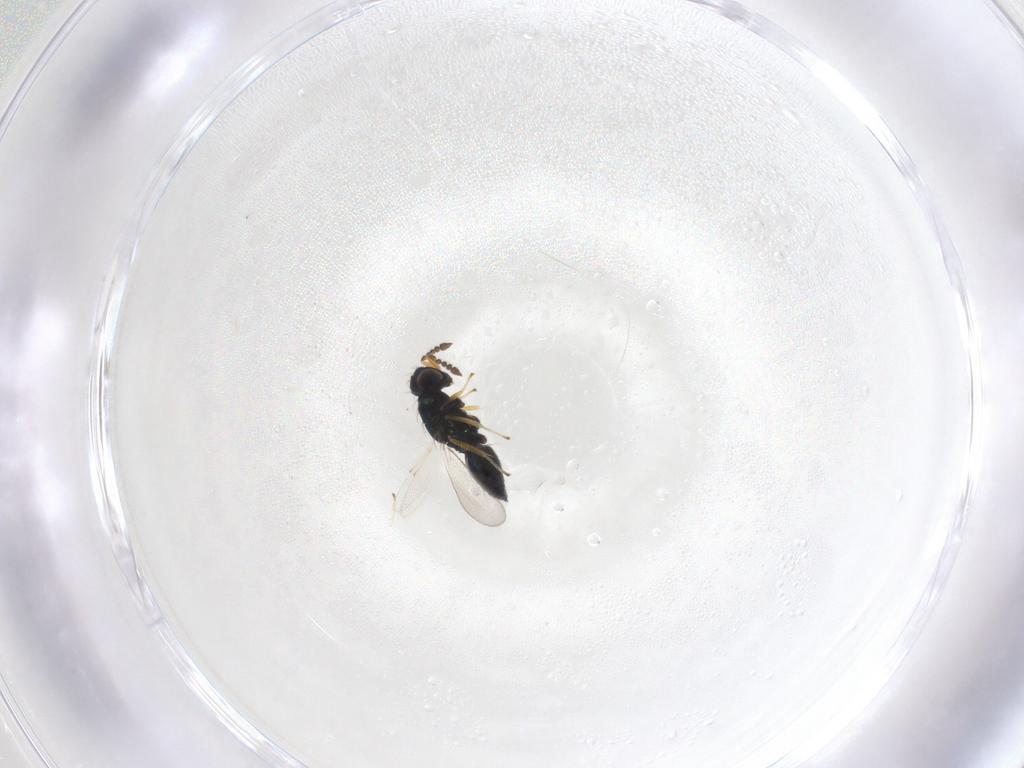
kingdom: Animalia
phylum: Arthropoda
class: Insecta
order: Hymenoptera
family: Eulophidae
